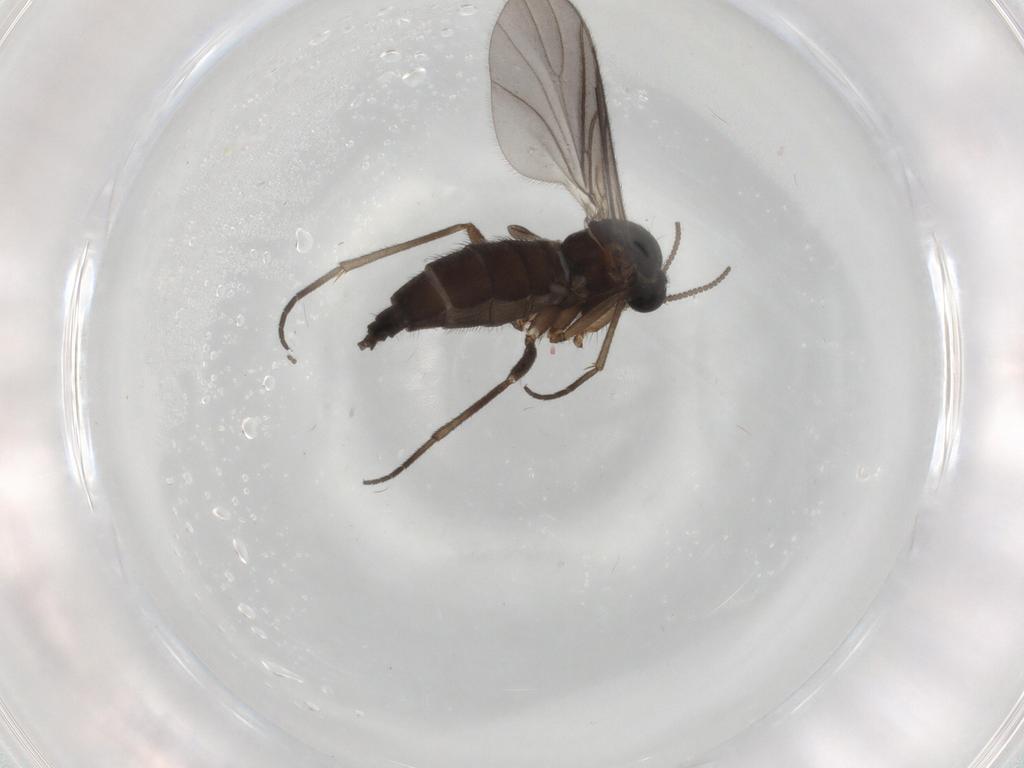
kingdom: Animalia
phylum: Arthropoda
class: Insecta
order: Diptera
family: Sciaridae
